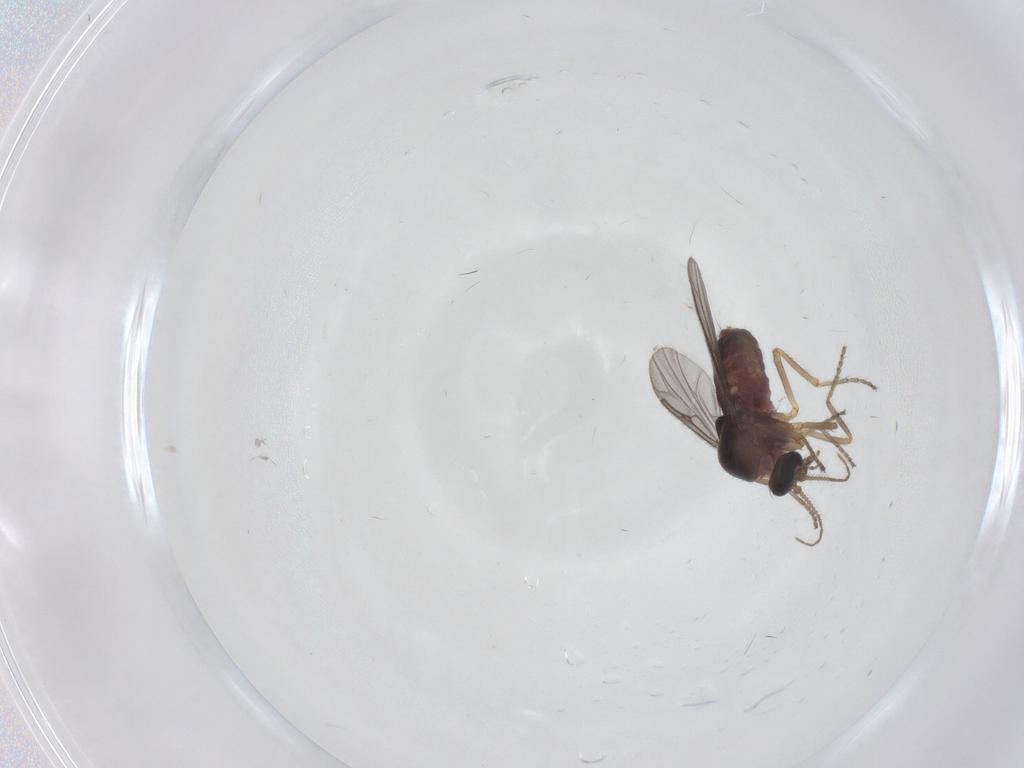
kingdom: Animalia
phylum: Arthropoda
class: Insecta
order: Diptera
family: Ceratopogonidae
